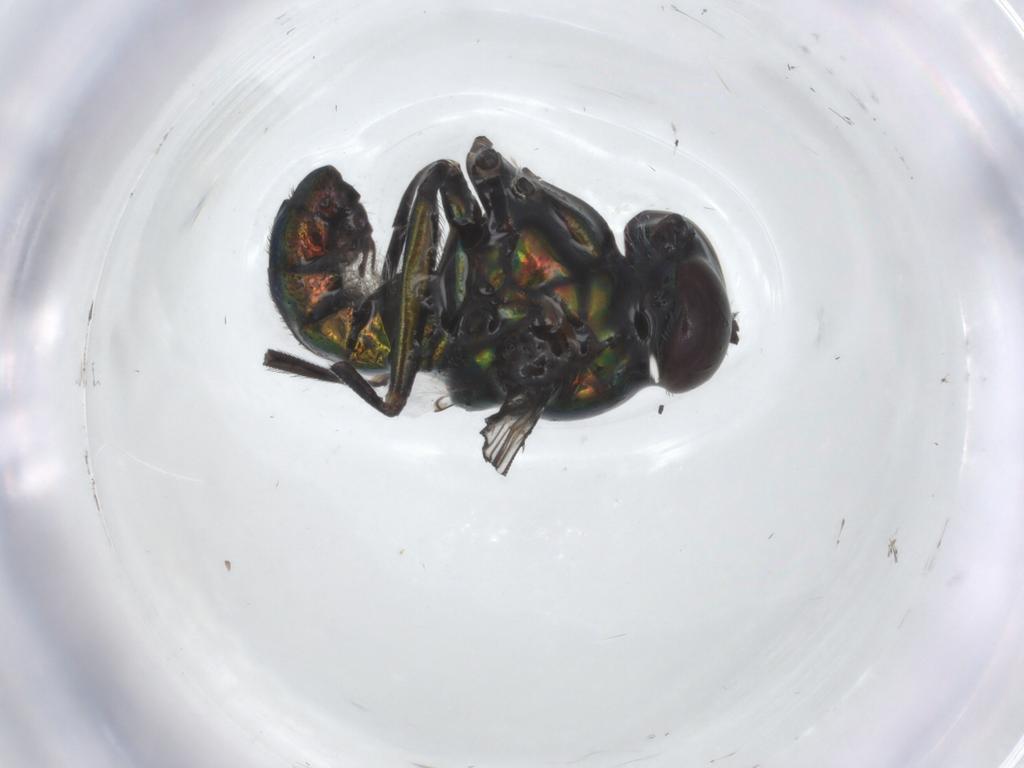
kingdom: Animalia
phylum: Arthropoda
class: Insecta
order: Diptera
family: Dolichopodidae
